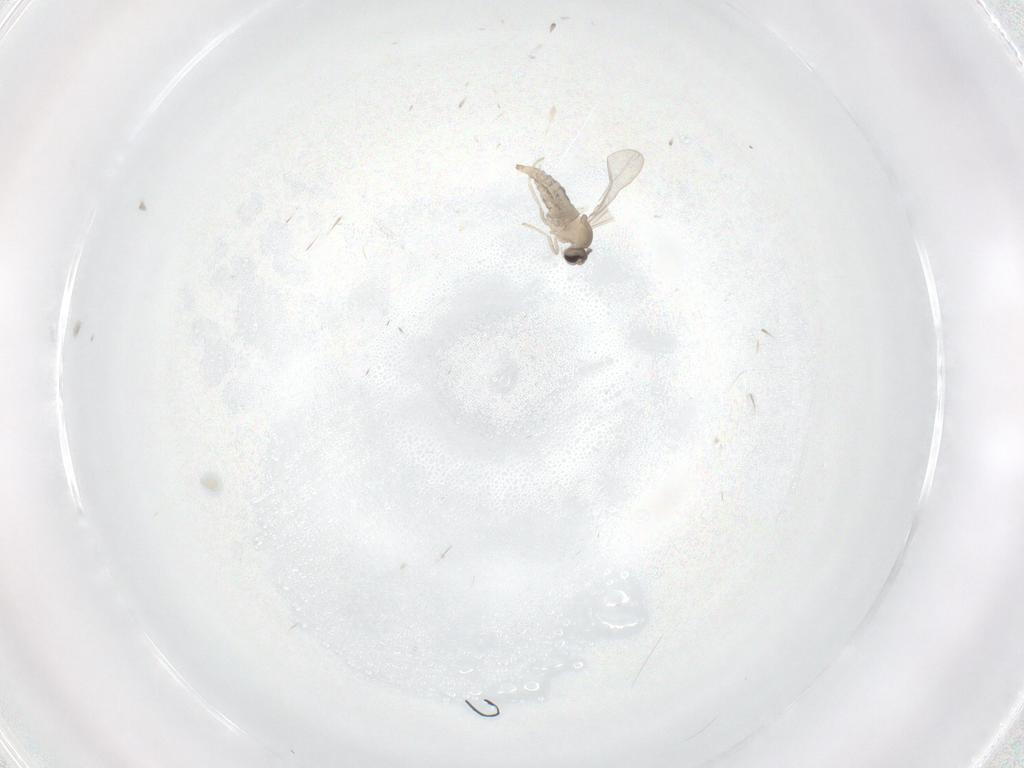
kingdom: Animalia
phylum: Arthropoda
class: Insecta
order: Diptera
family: Cecidomyiidae
